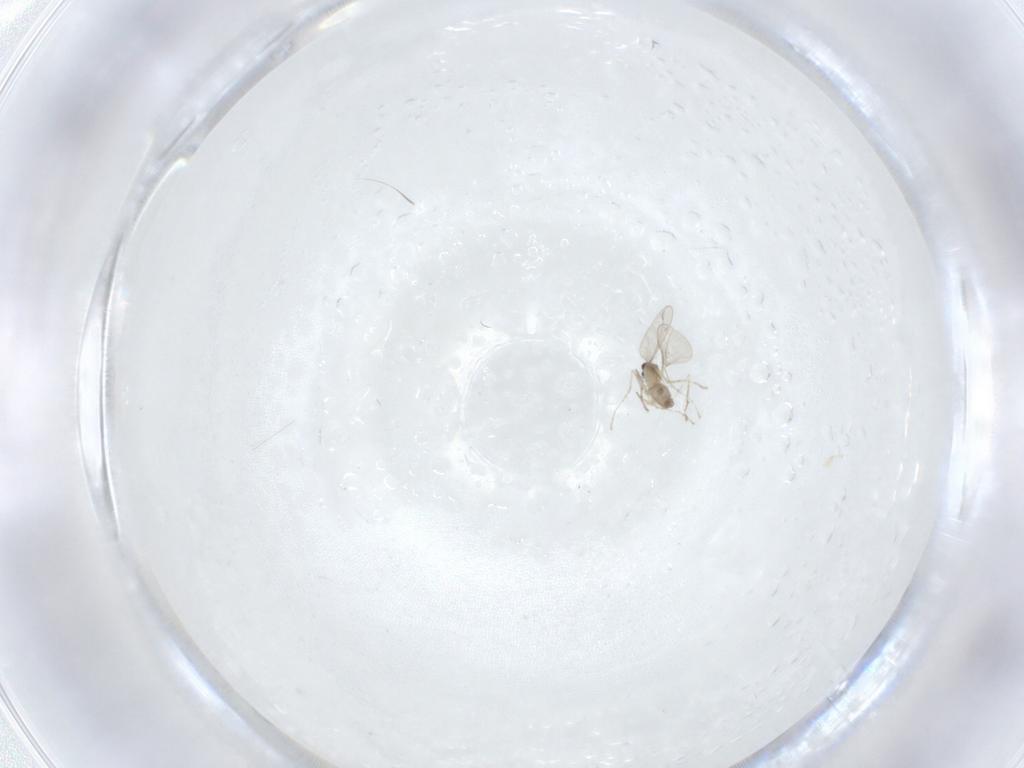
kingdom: Animalia
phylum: Arthropoda
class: Insecta
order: Diptera
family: Cecidomyiidae
